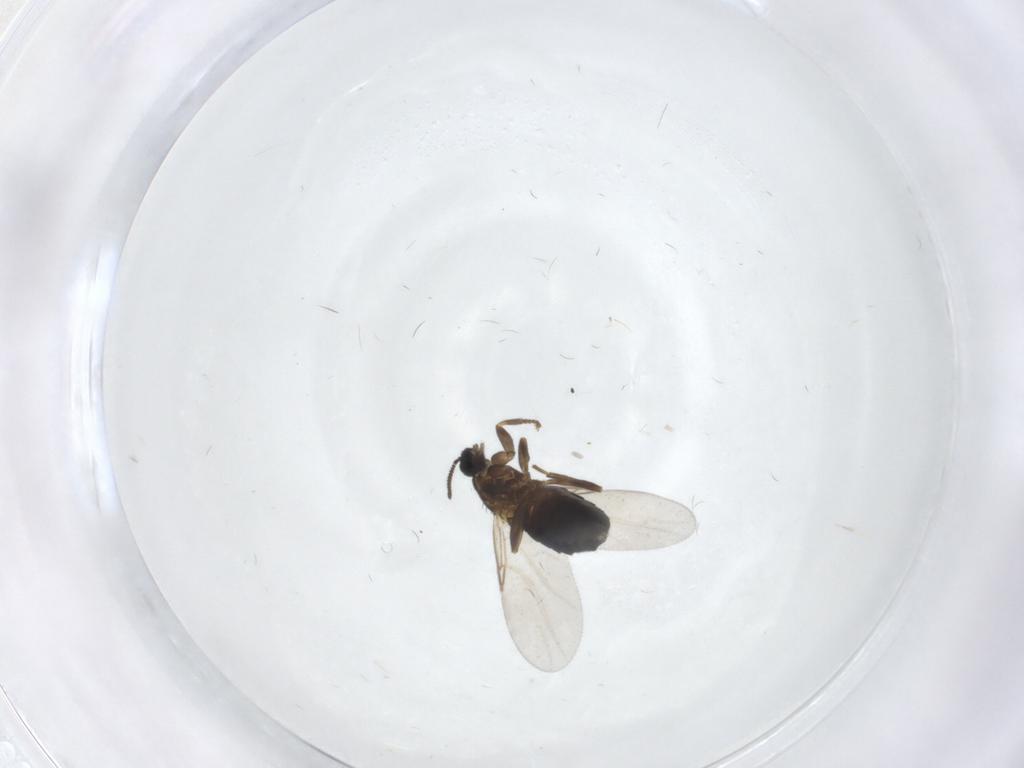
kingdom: Animalia
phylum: Arthropoda
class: Insecta
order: Diptera
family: Scatopsidae
